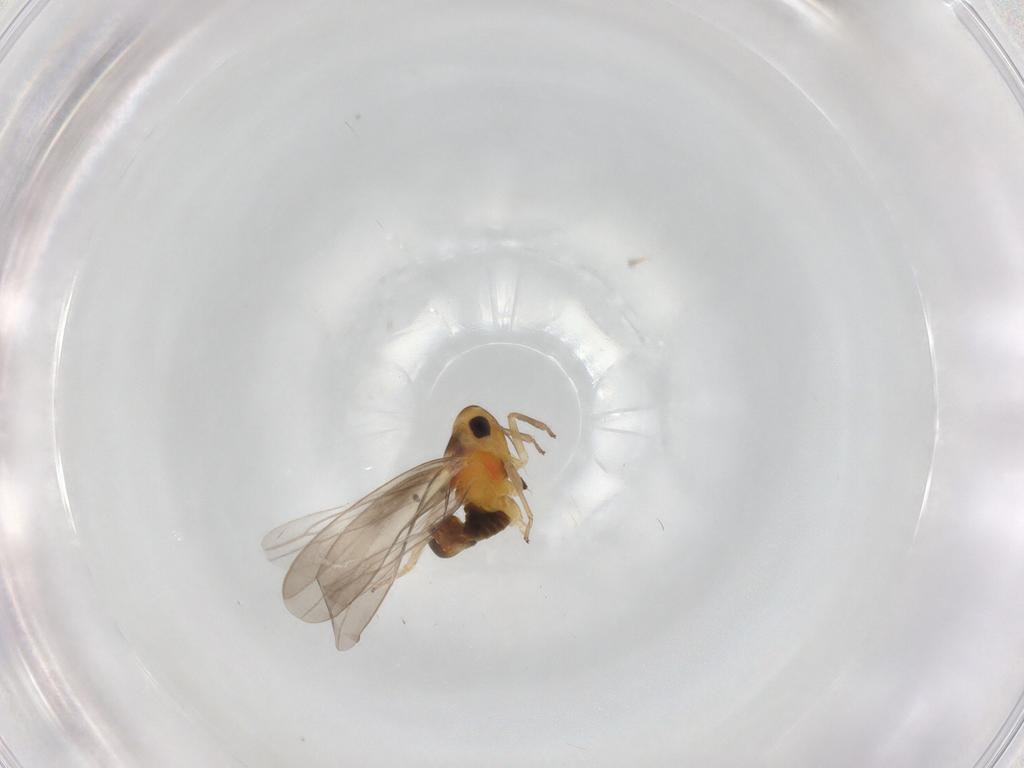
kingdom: Animalia
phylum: Arthropoda
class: Insecta
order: Hemiptera
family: Cicadellidae
